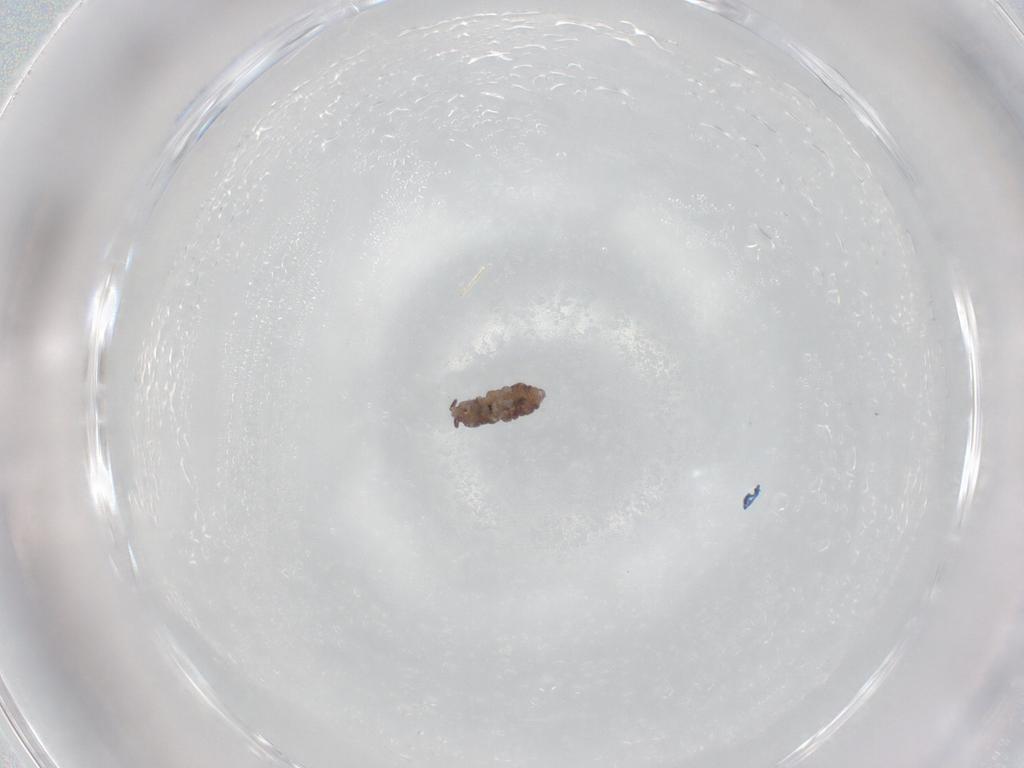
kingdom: Animalia
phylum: Arthropoda
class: Collembola
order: Poduromorpha
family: Hypogastruridae
